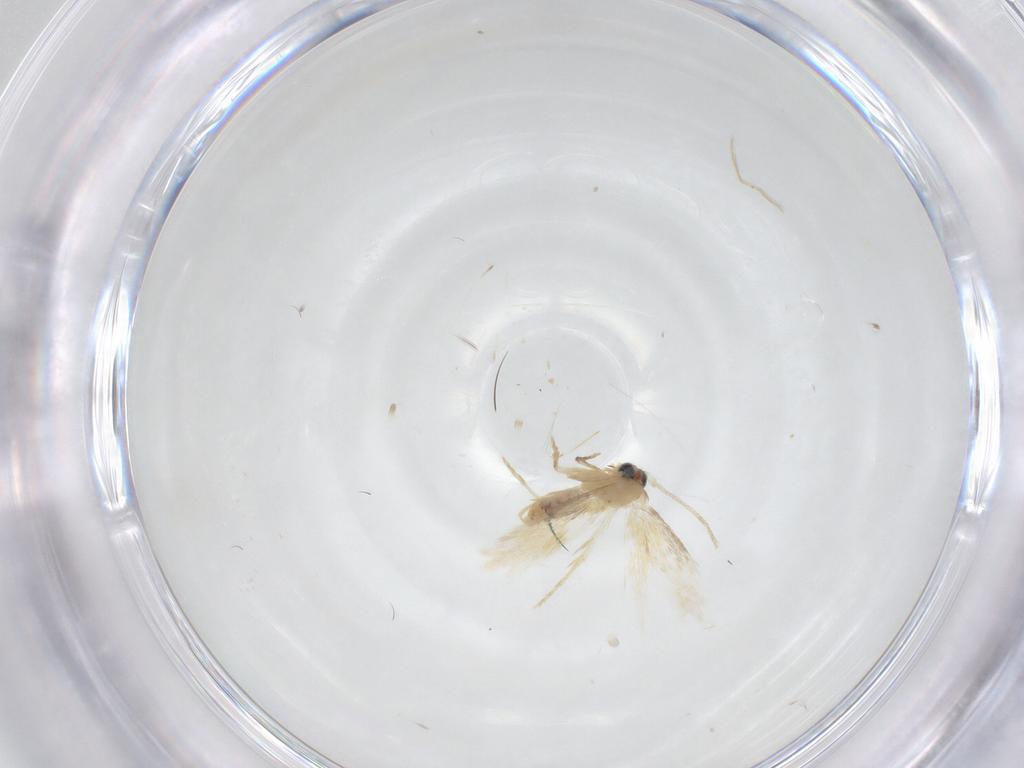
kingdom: Animalia
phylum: Arthropoda
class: Insecta
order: Lepidoptera
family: Nepticulidae
